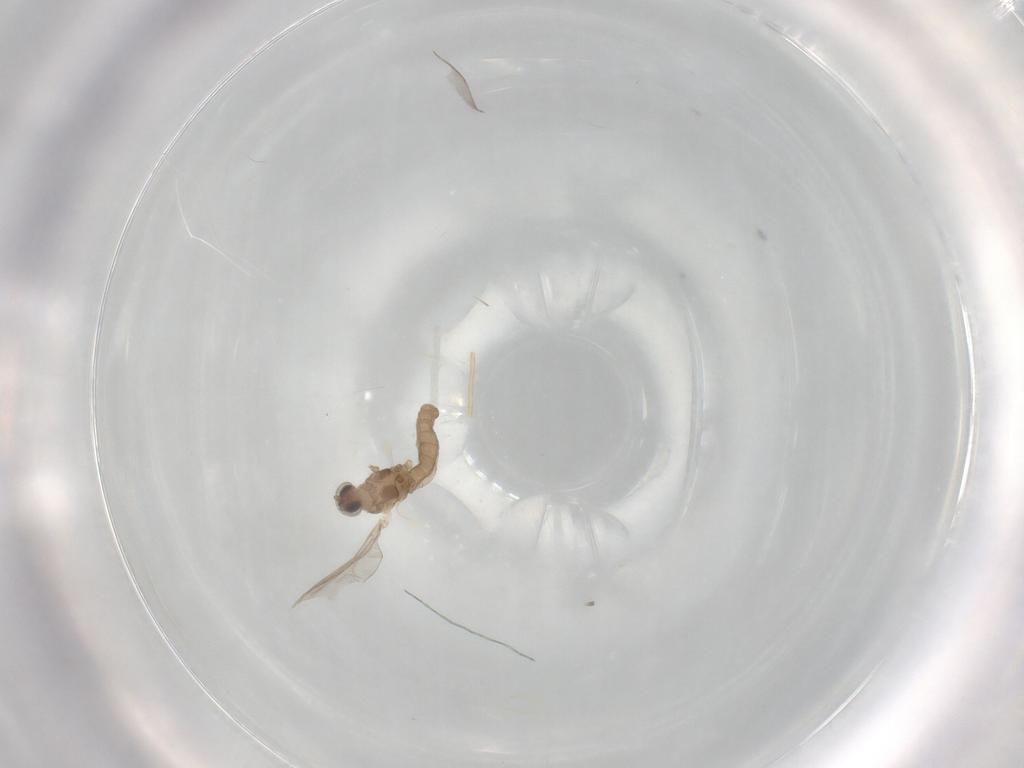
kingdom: Animalia
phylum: Arthropoda
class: Insecta
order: Diptera
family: Cecidomyiidae
